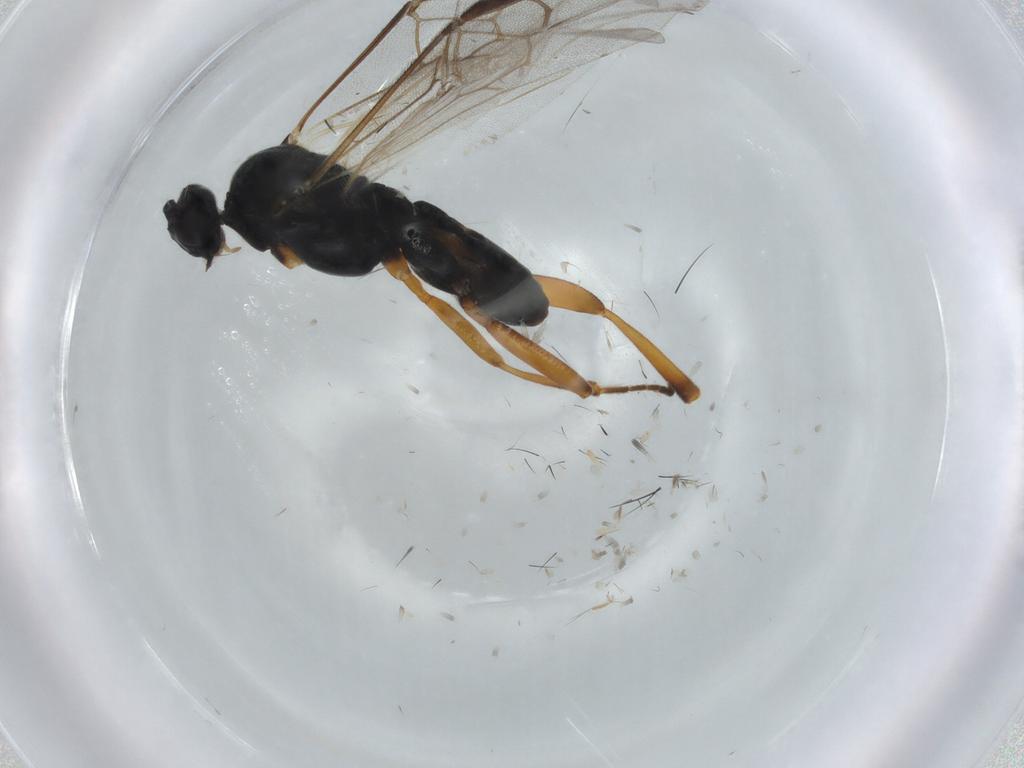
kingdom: Animalia
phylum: Arthropoda
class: Insecta
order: Hymenoptera
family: Braconidae
